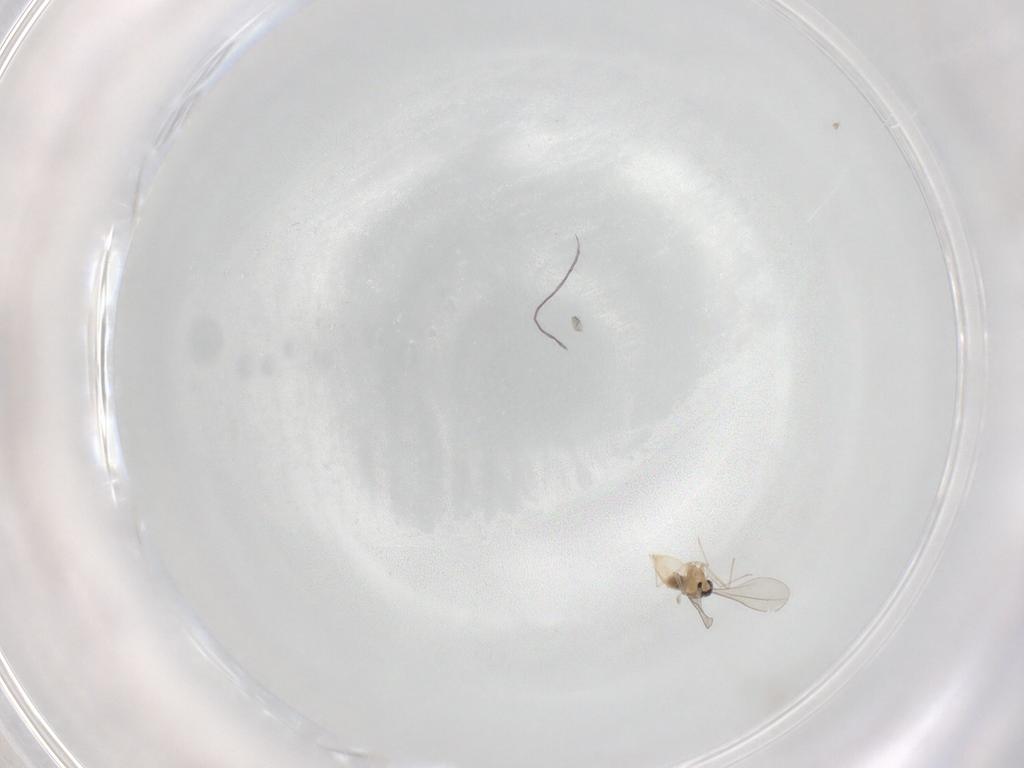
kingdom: Animalia
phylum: Arthropoda
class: Insecta
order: Diptera
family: Cecidomyiidae
